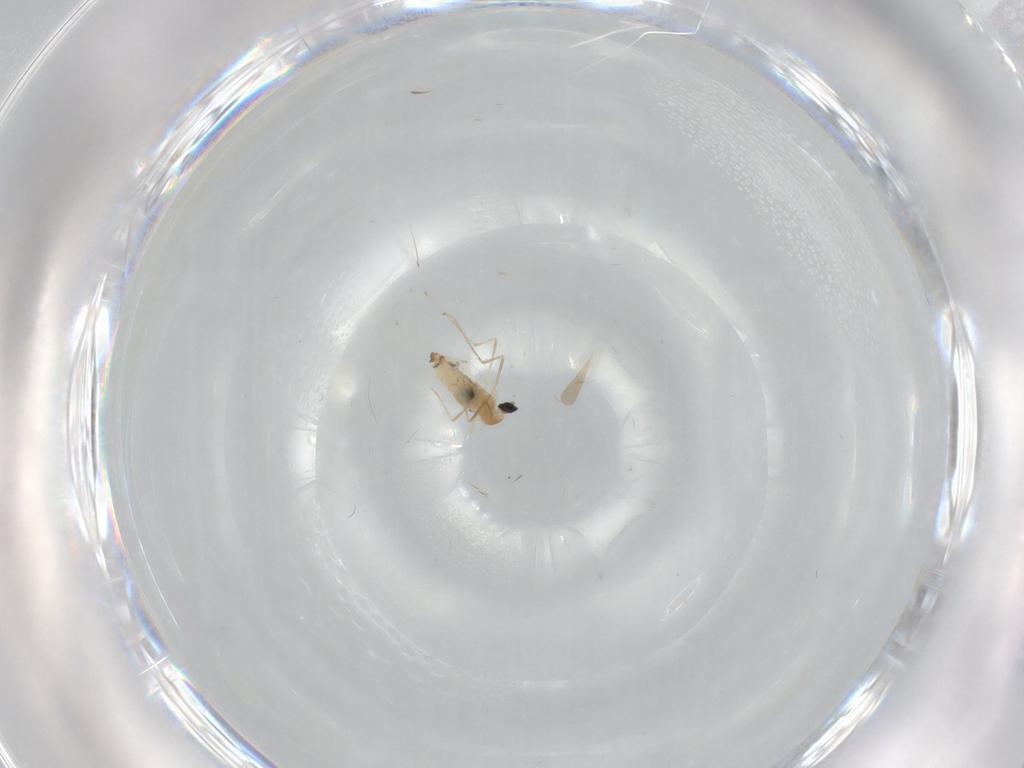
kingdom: Animalia
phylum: Arthropoda
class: Insecta
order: Diptera
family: Cecidomyiidae
